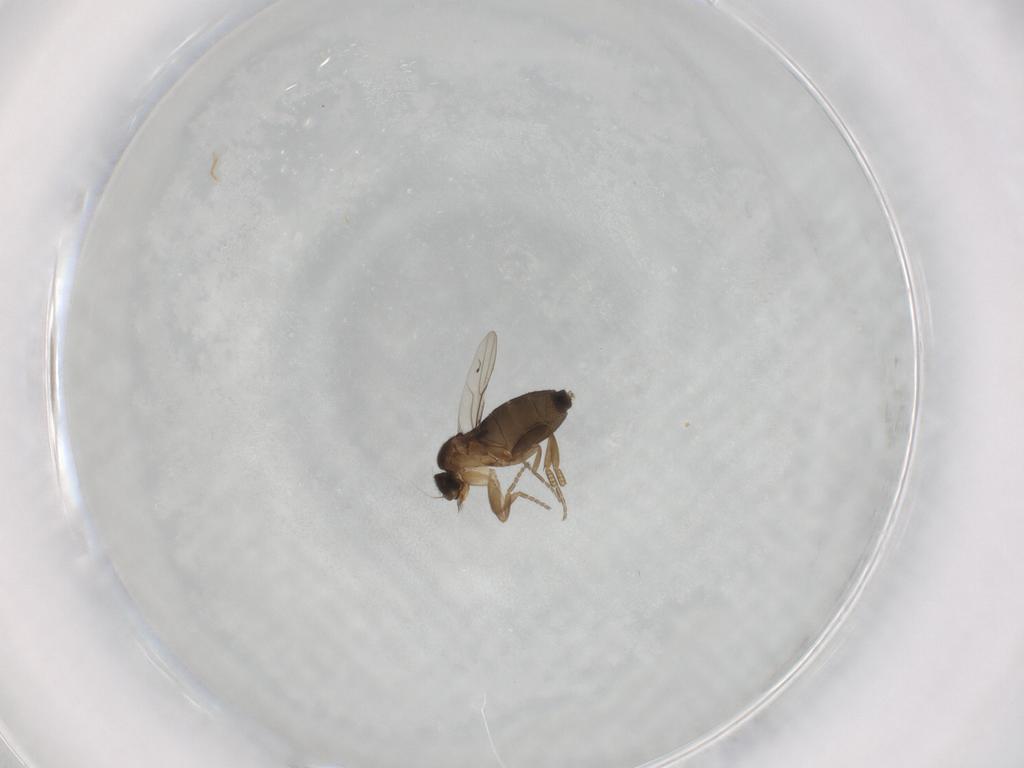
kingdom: Animalia
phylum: Arthropoda
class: Insecta
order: Diptera
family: Phoridae
